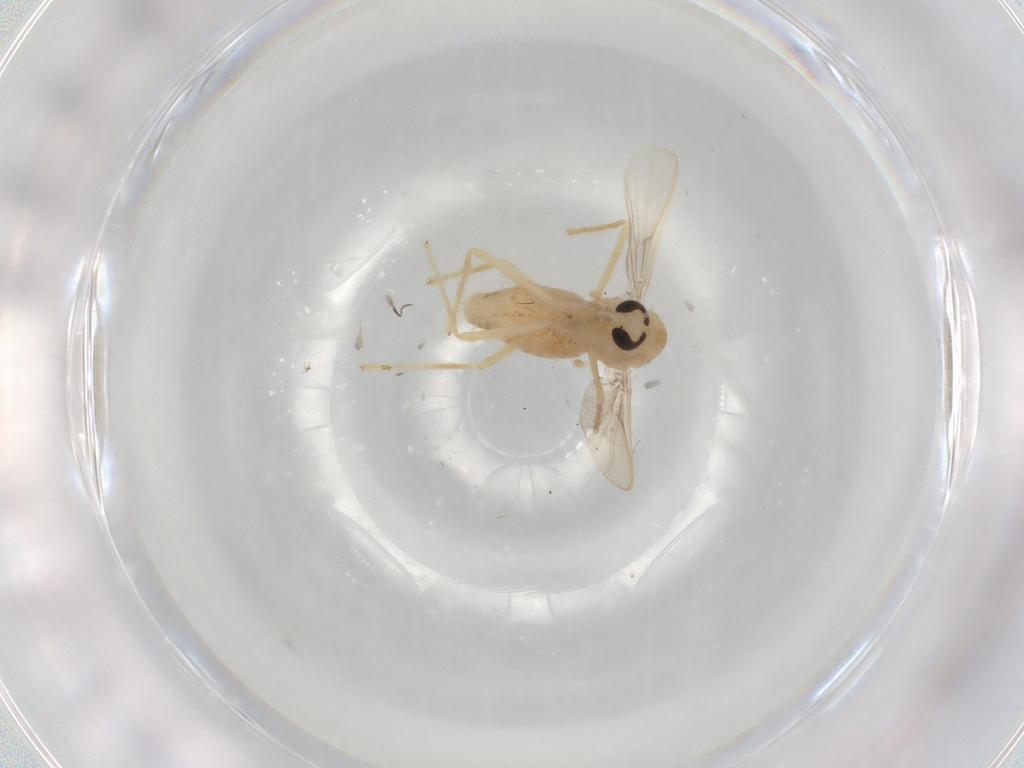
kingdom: Animalia
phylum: Arthropoda
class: Insecta
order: Diptera
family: Chironomidae
